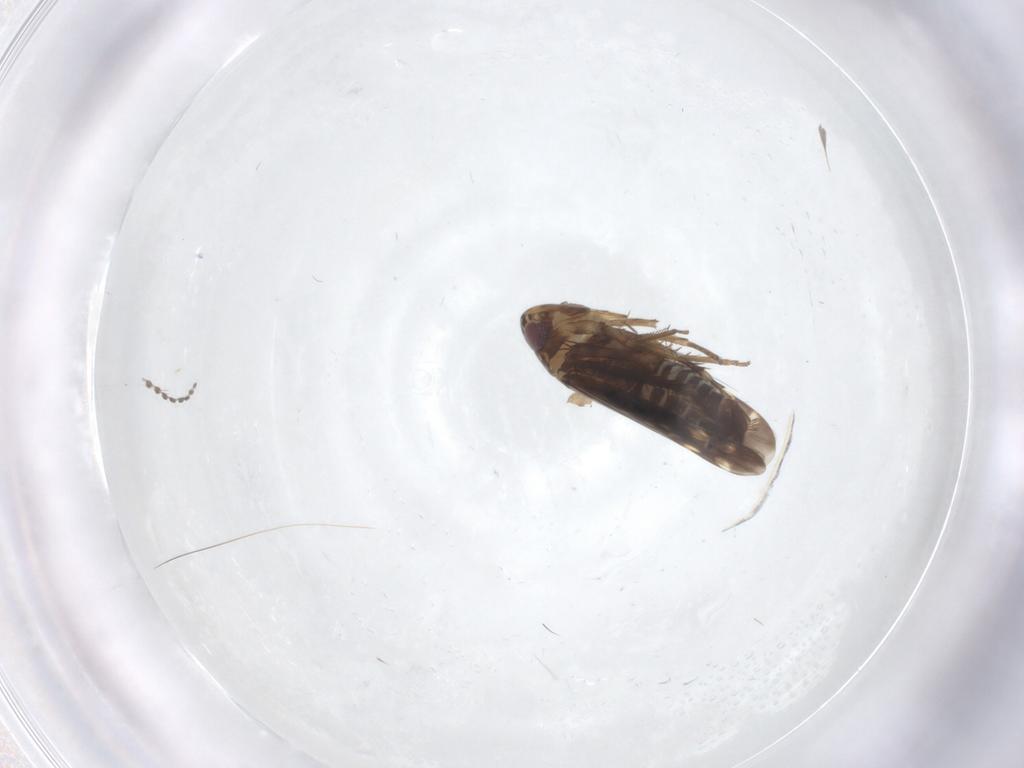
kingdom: Animalia
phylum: Arthropoda
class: Insecta
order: Hemiptera
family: Cicadellidae
